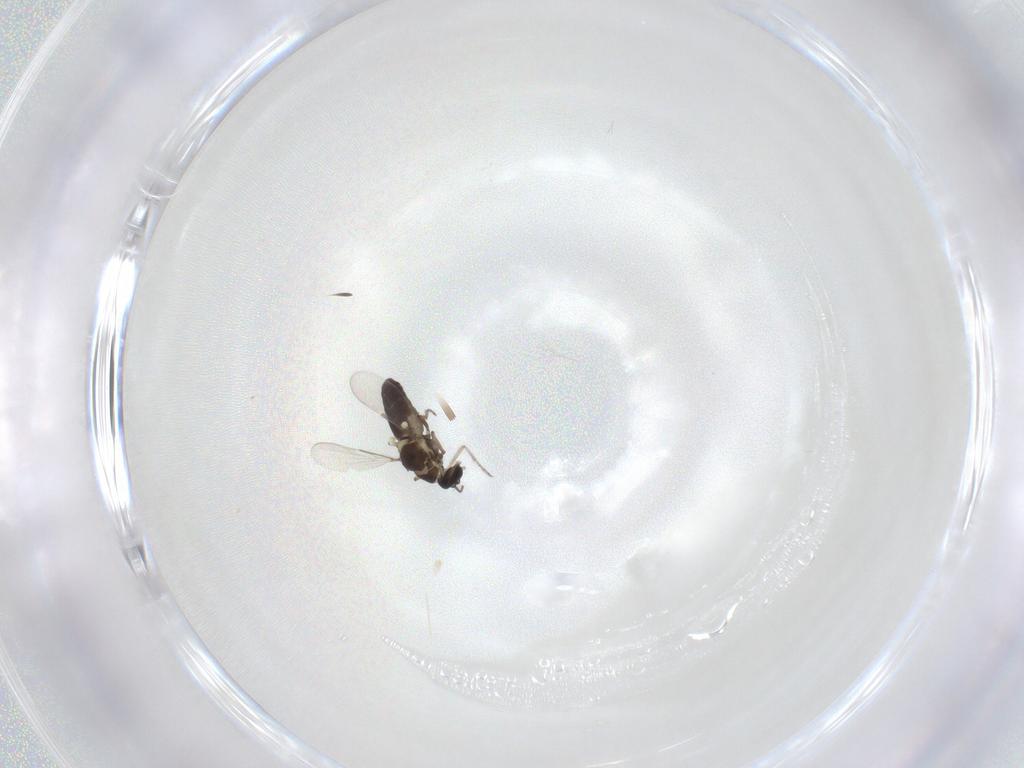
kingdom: Animalia
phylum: Arthropoda
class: Insecta
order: Diptera
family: Ceratopogonidae
